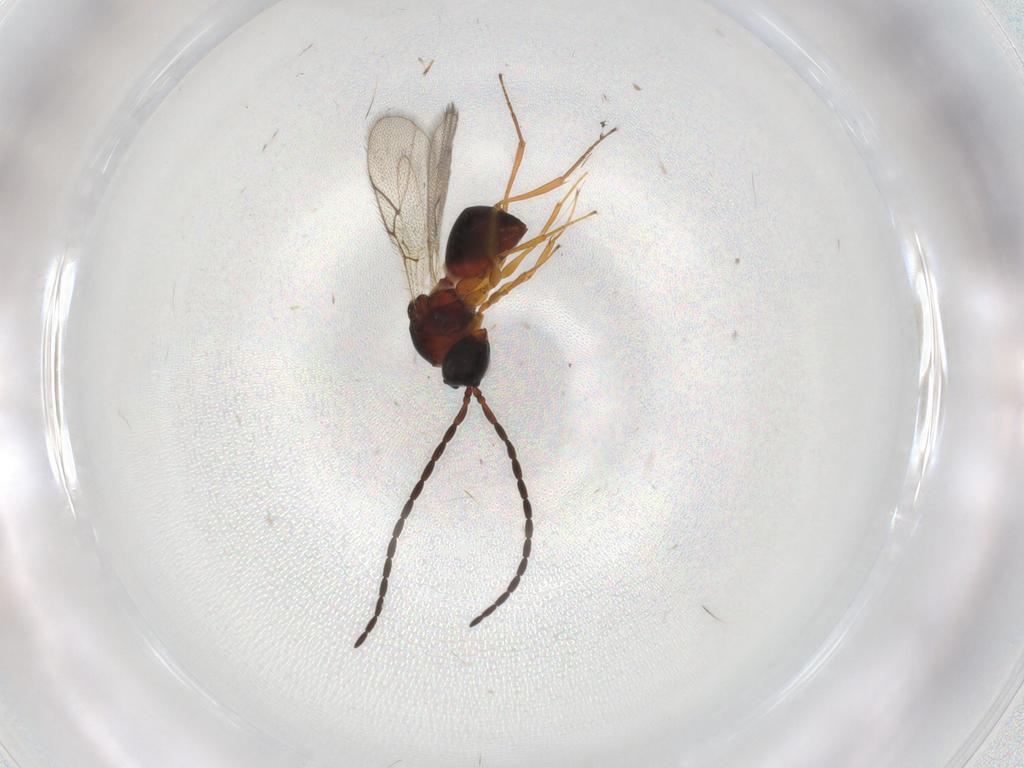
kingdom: Animalia
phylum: Arthropoda
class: Insecta
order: Hymenoptera
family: Figitidae
